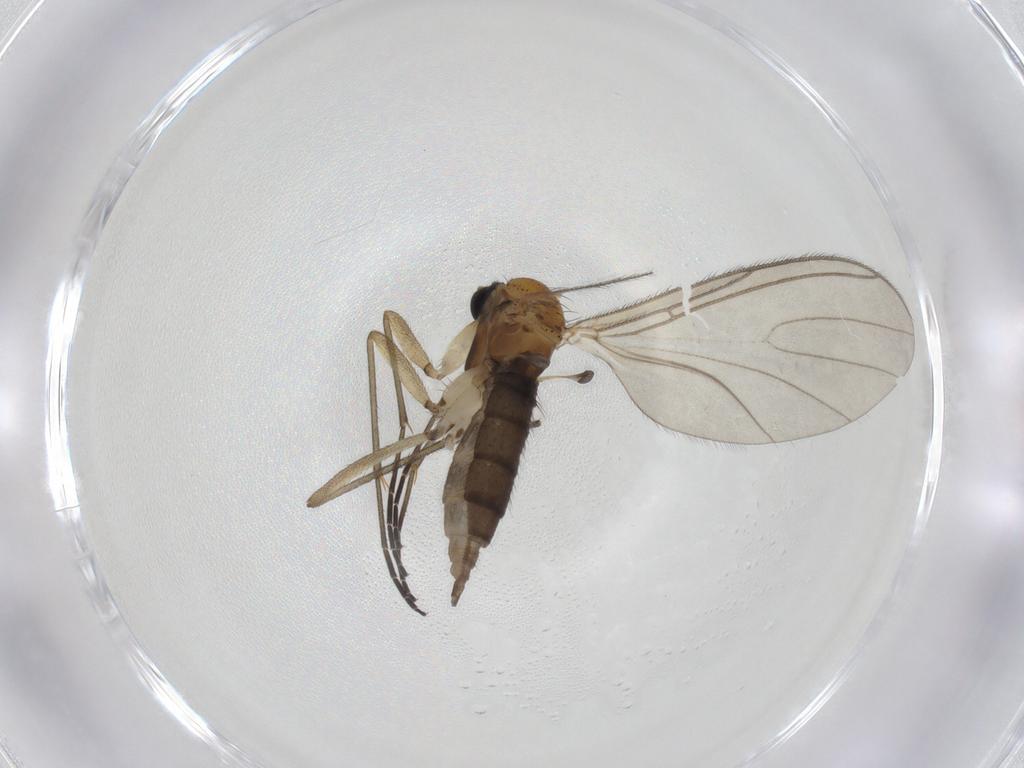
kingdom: Animalia
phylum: Arthropoda
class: Insecta
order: Diptera
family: Sciaridae
